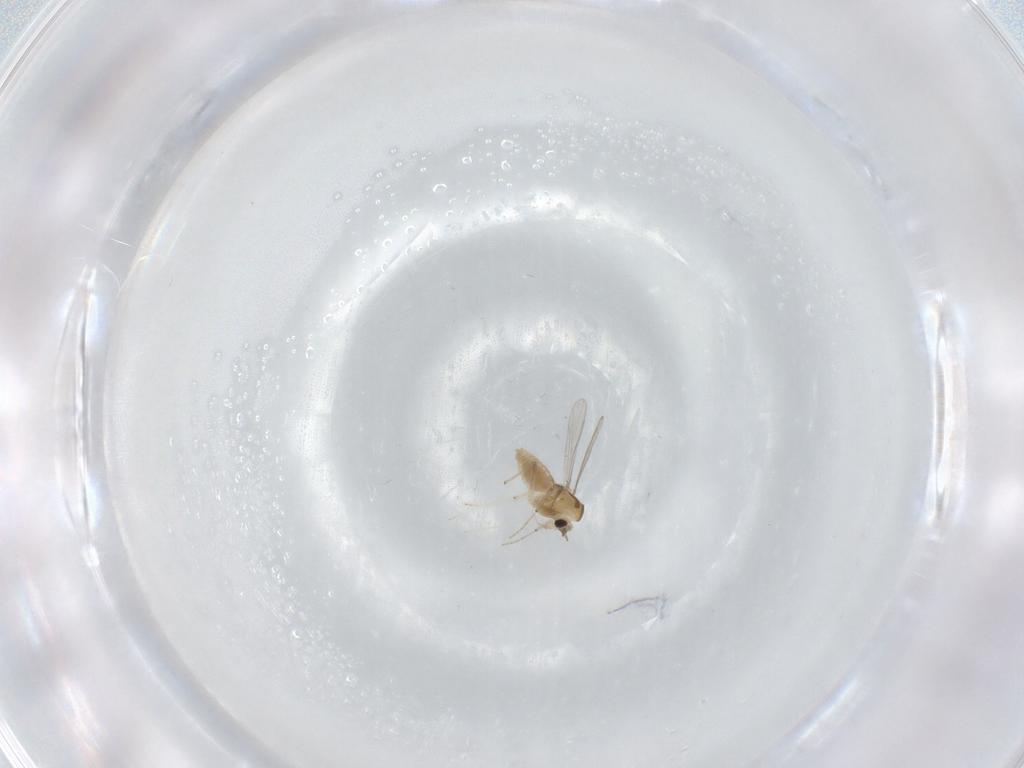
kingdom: Animalia
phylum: Arthropoda
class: Insecta
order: Diptera
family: Chironomidae
